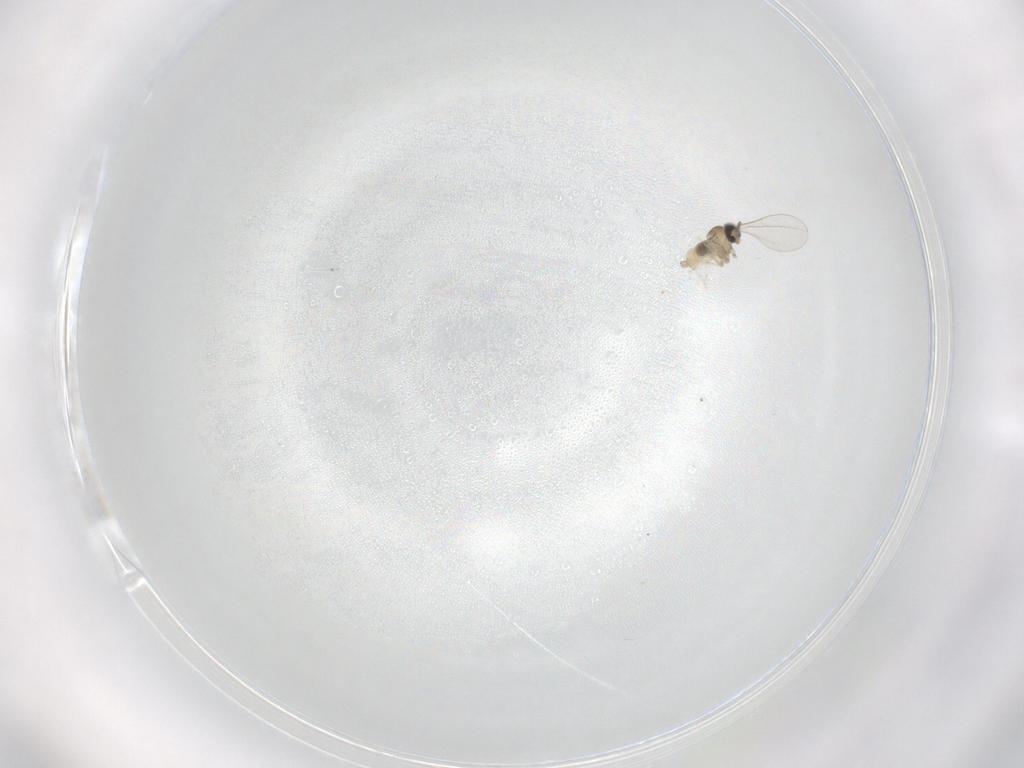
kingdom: Animalia
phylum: Arthropoda
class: Insecta
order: Diptera
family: Cecidomyiidae
